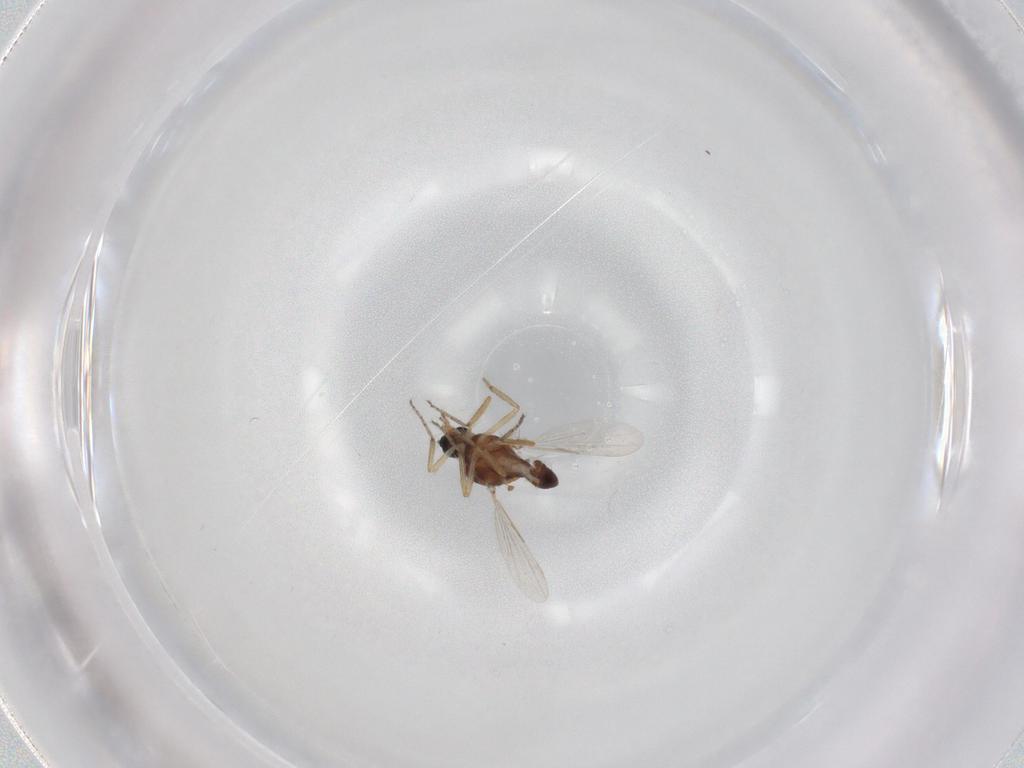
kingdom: Animalia
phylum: Arthropoda
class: Insecta
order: Diptera
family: Ceratopogonidae
